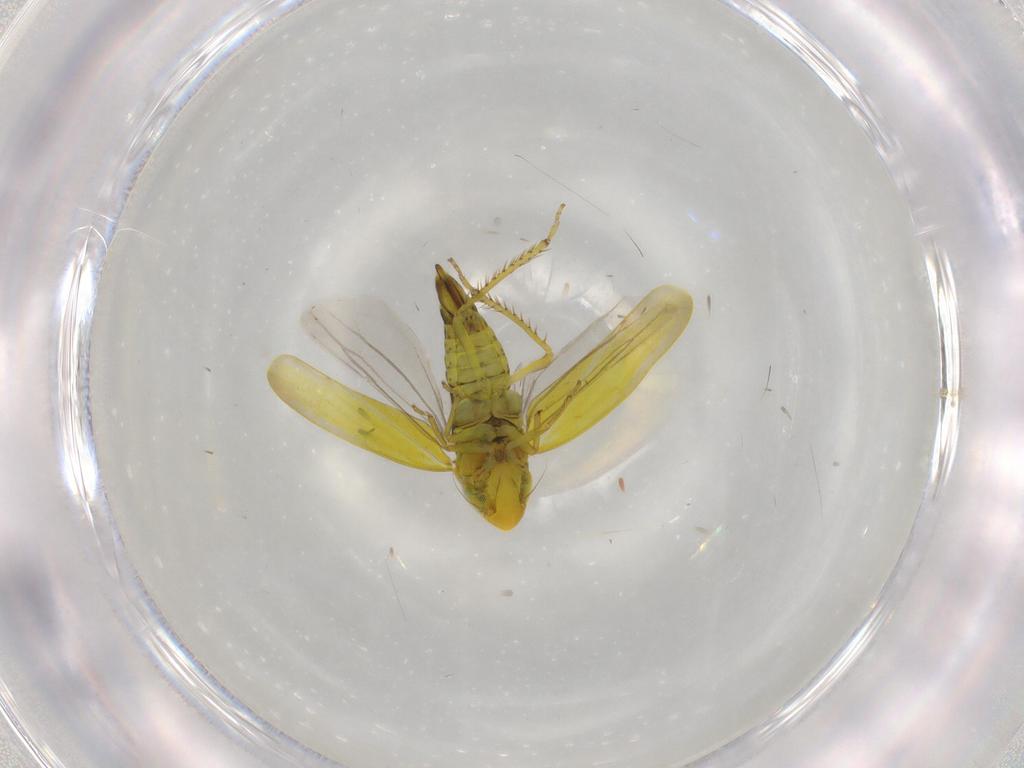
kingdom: Animalia
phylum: Arthropoda
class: Insecta
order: Hemiptera
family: Cicadellidae
